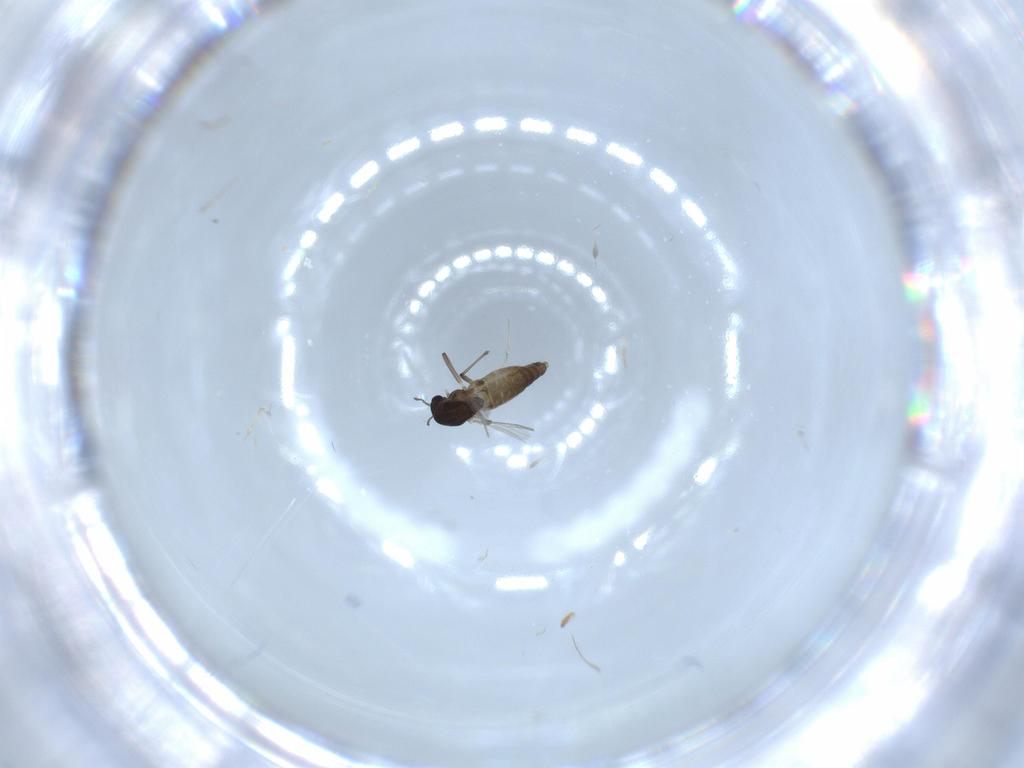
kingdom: Animalia
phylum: Arthropoda
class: Insecta
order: Diptera
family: Chironomidae
